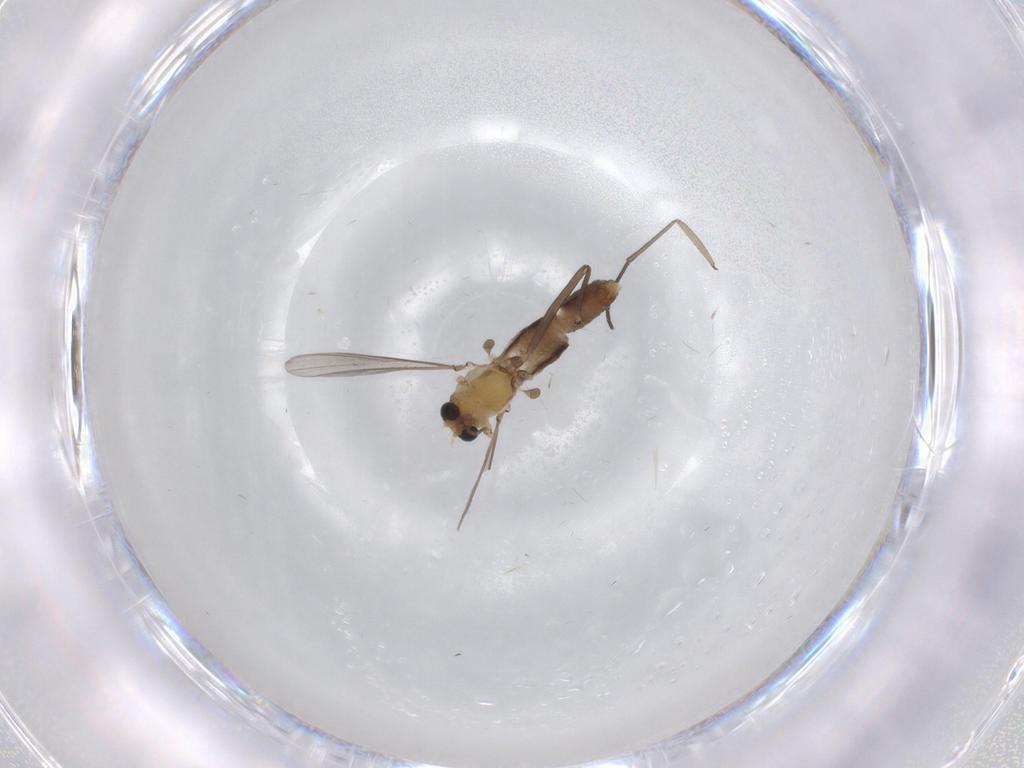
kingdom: Animalia
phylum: Arthropoda
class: Insecta
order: Diptera
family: Chironomidae
